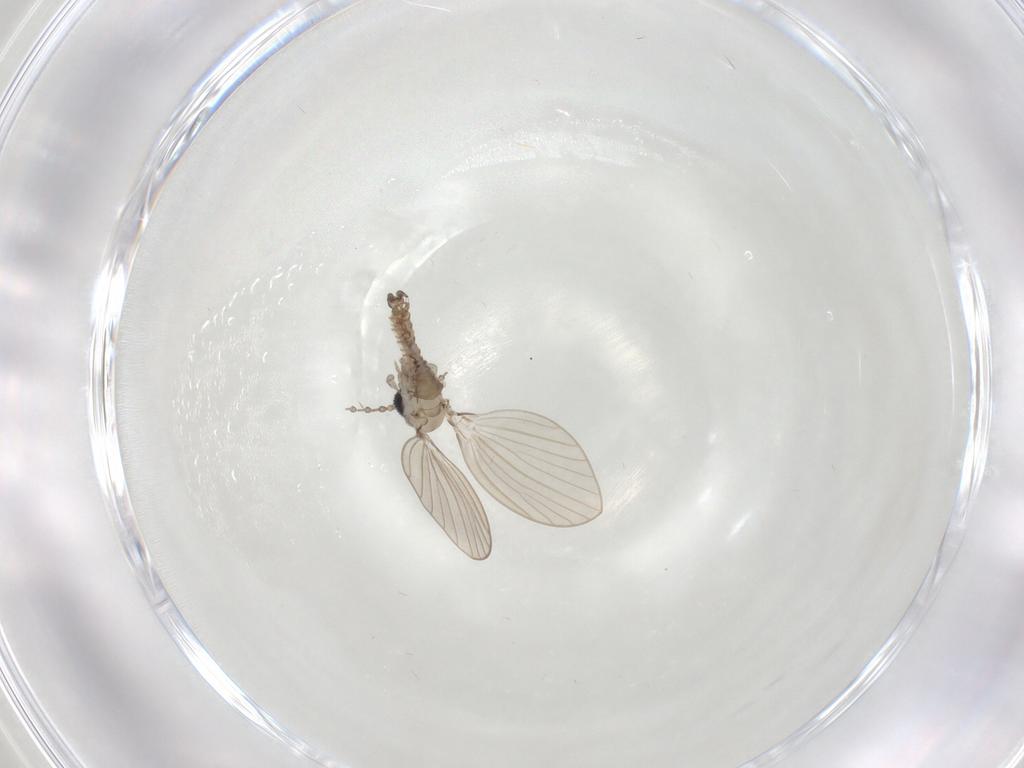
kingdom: Animalia
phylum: Arthropoda
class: Insecta
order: Diptera
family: Psychodidae
